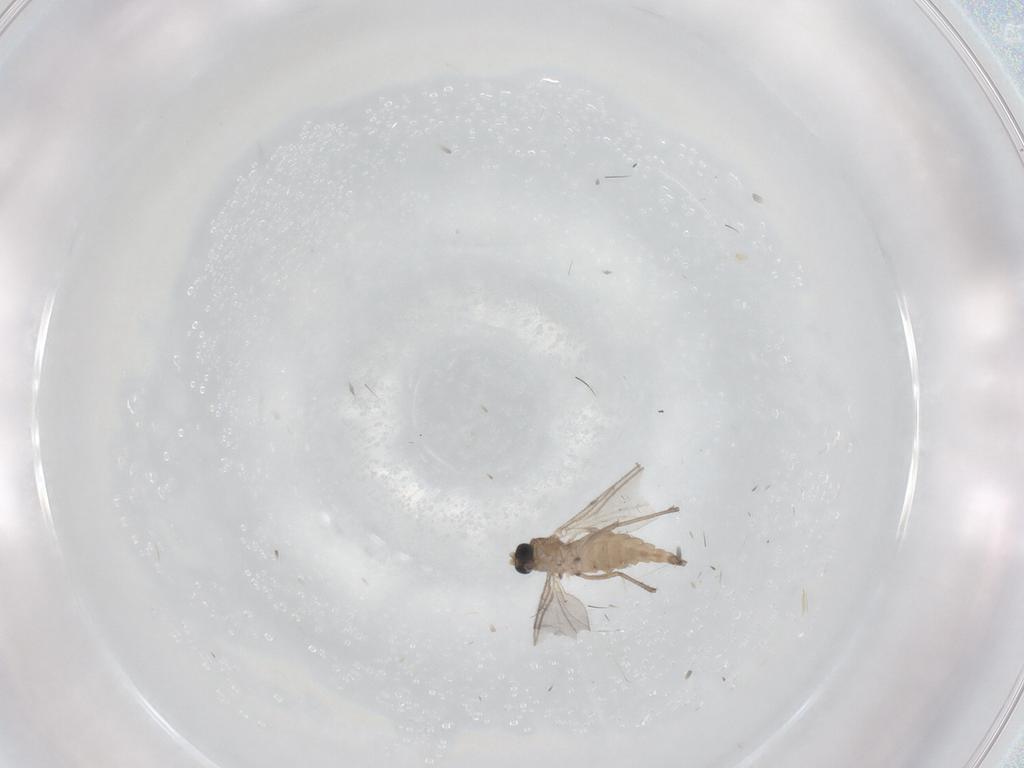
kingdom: Animalia
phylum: Arthropoda
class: Insecta
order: Diptera
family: Sciaridae
